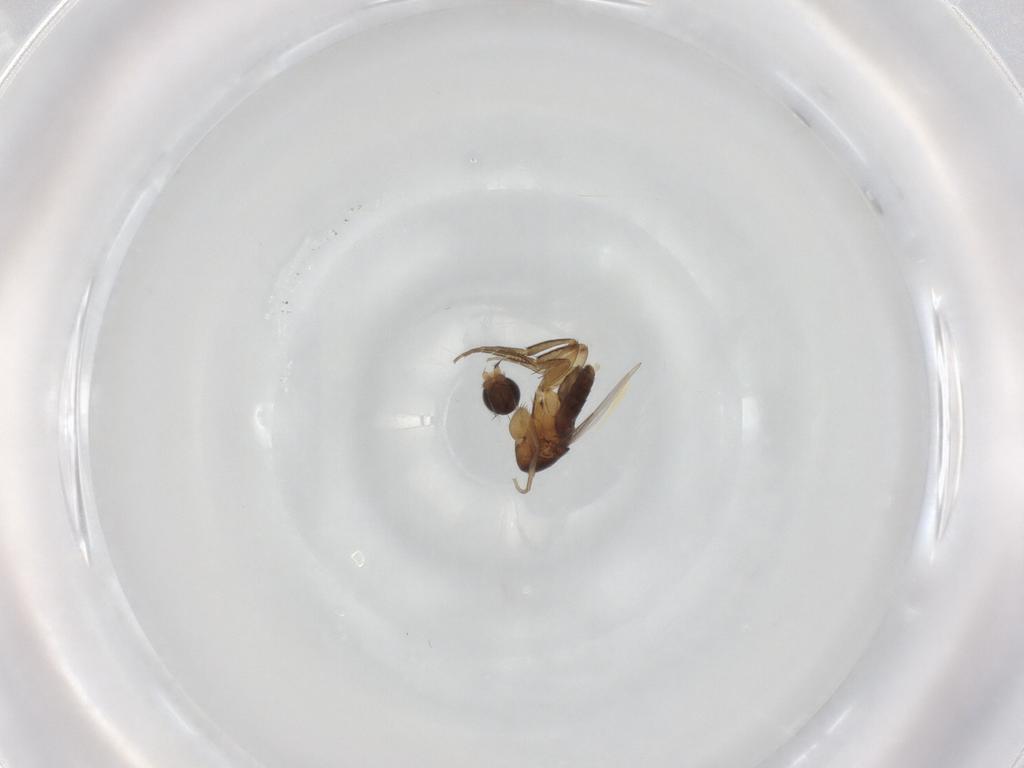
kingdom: Animalia
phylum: Arthropoda
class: Insecta
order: Diptera
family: Phoridae
